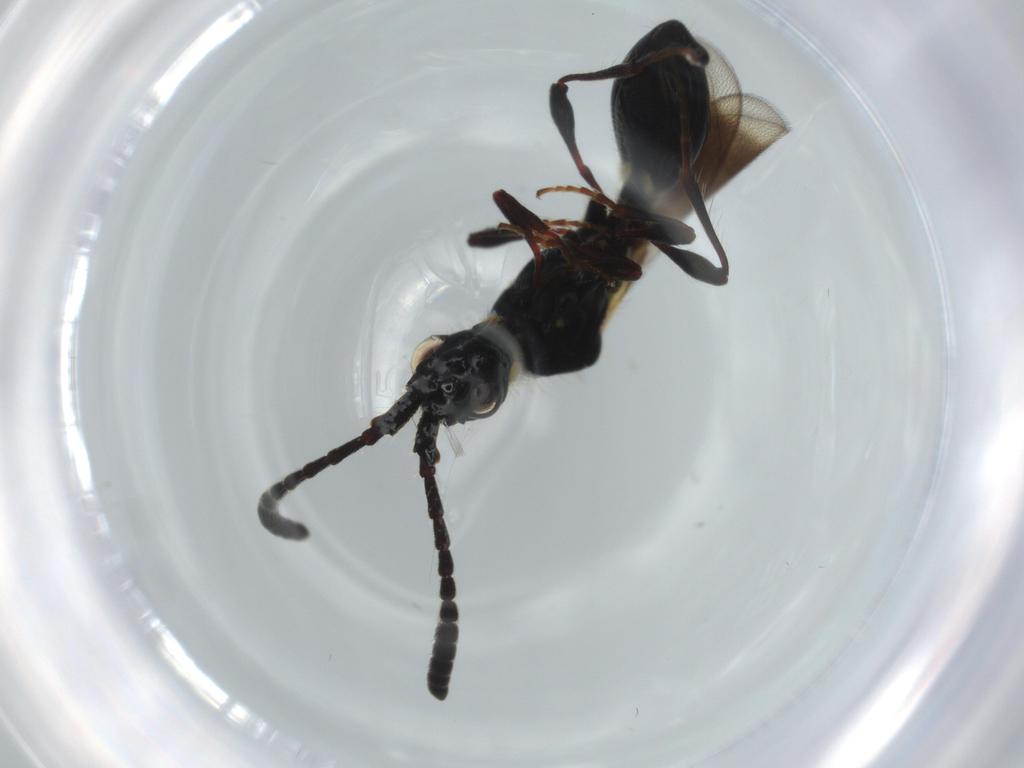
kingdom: Animalia
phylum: Arthropoda
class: Insecta
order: Hymenoptera
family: Diapriidae
